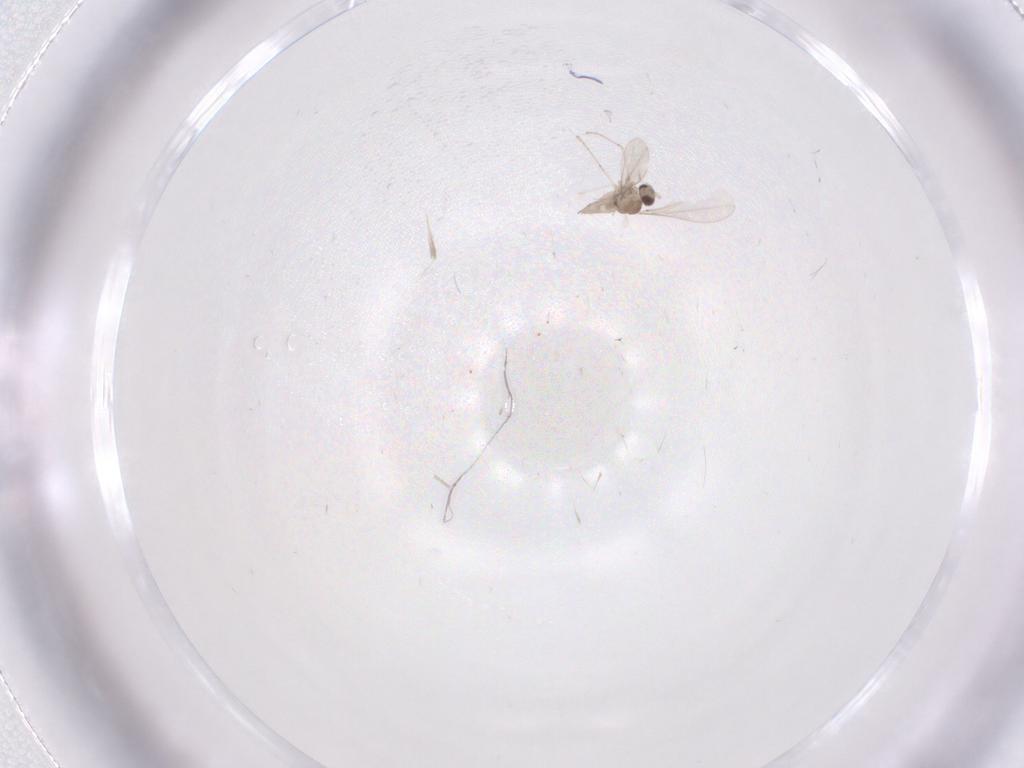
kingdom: Animalia
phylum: Arthropoda
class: Insecta
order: Diptera
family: Cecidomyiidae
